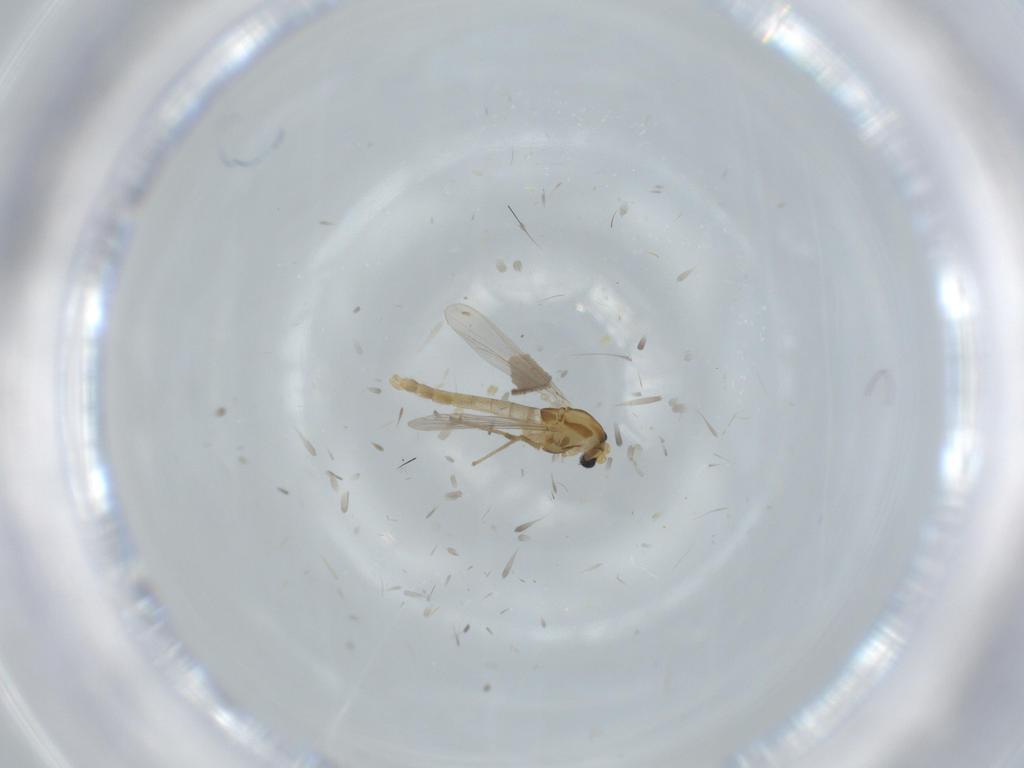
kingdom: Animalia
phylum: Arthropoda
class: Insecta
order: Diptera
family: Chironomidae
